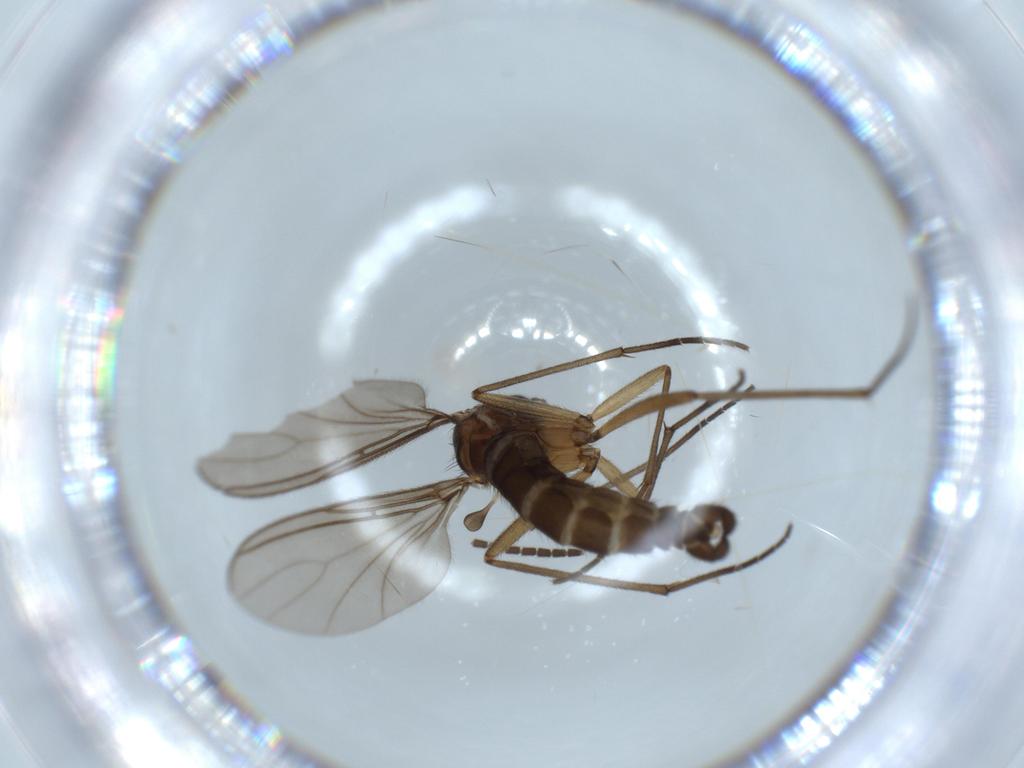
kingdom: Animalia
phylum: Arthropoda
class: Insecta
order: Diptera
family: Sciaridae
